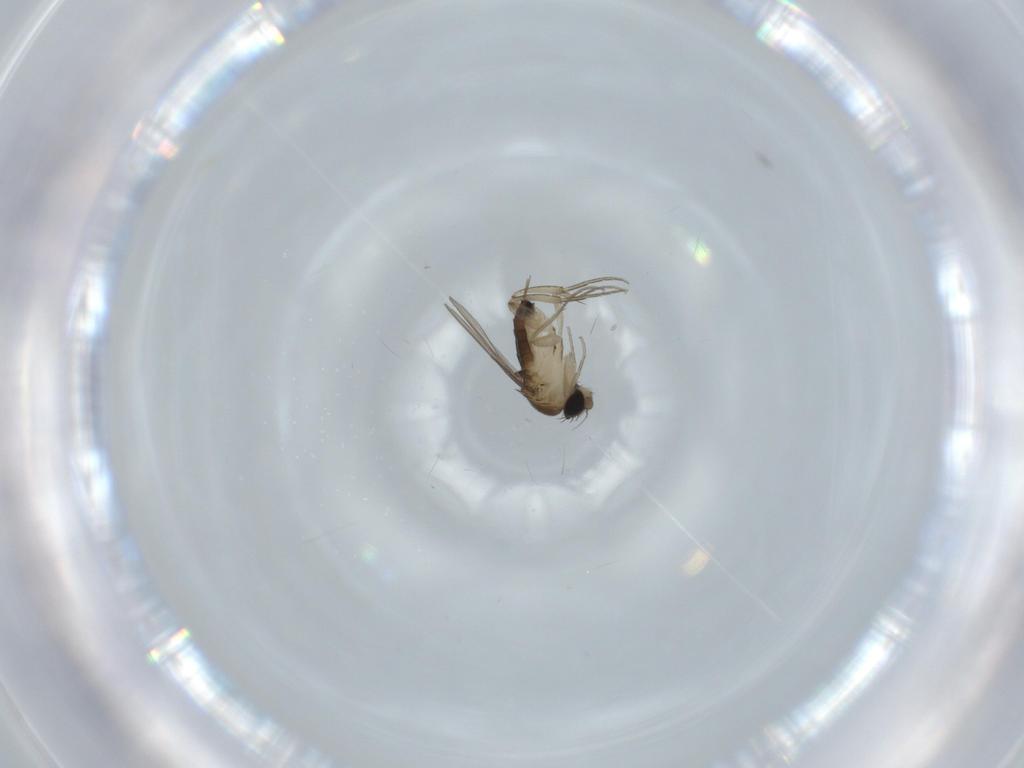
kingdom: Animalia
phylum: Arthropoda
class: Insecta
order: Diptera
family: Phoridae
